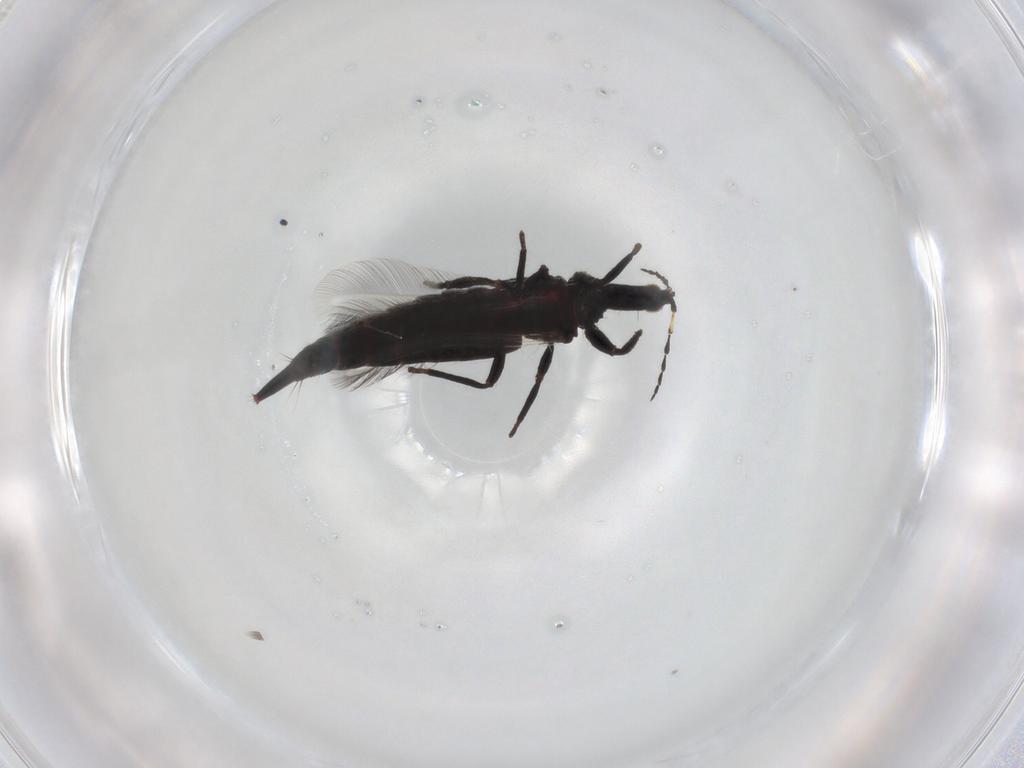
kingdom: Animalia
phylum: Arthropoda
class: Insecta
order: Thysanoptera
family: Phlaeothripidae
